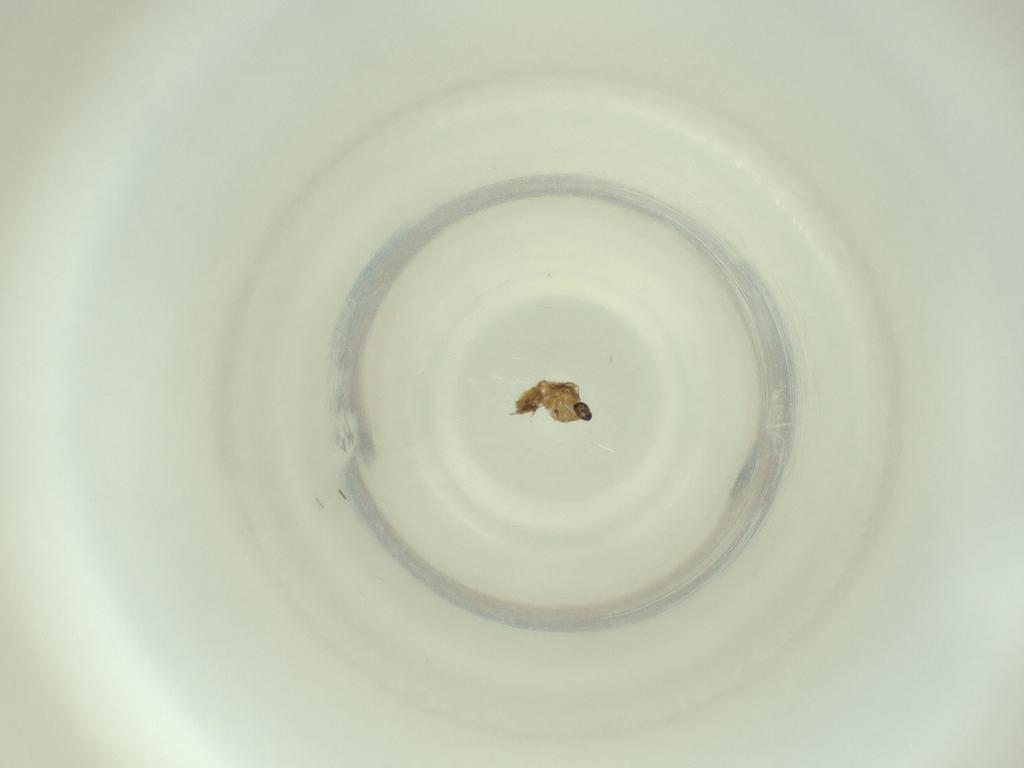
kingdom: Animalia
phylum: Arthropoda
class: Insecta
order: Diptera
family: Cecidomyiidae
